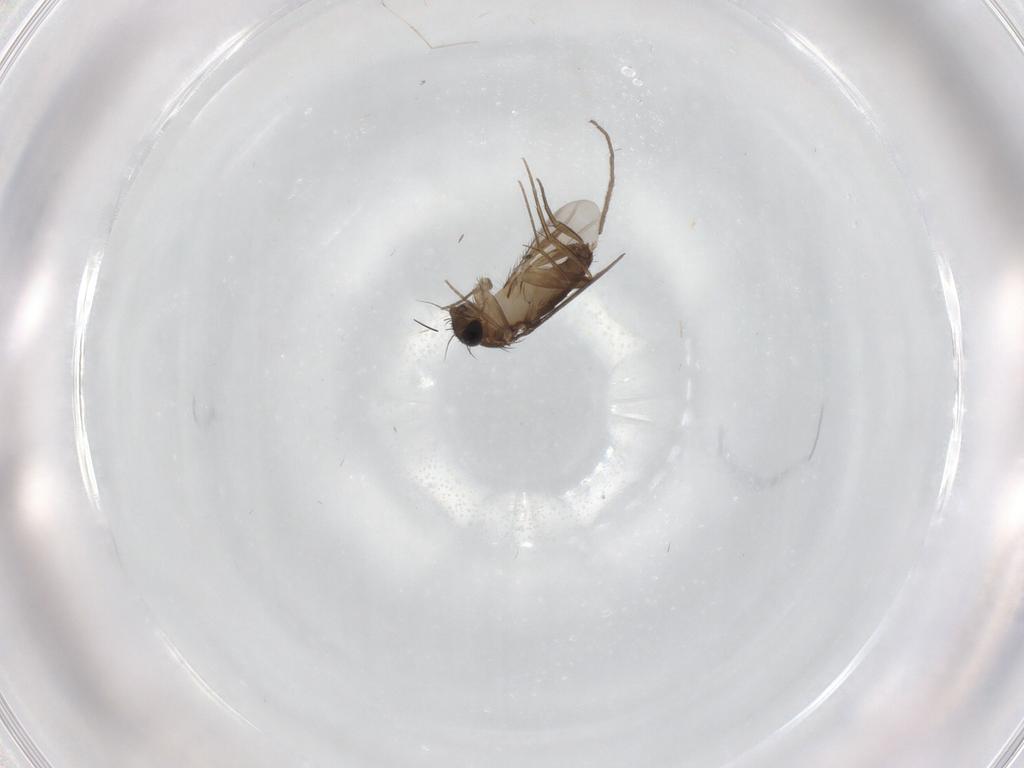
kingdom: Animalia
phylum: Arthropoda
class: Insecta
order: Diptera
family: Phoridae
